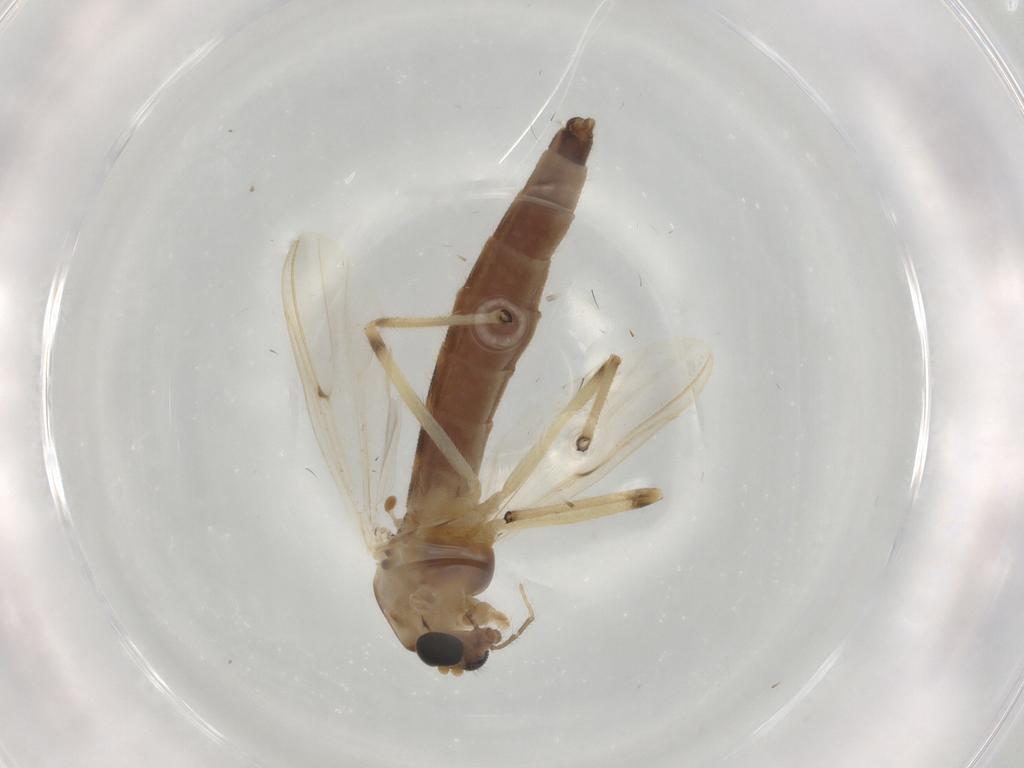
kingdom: Animalia
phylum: Arthropoda
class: Insecta
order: Diptera
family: Chironomidae
